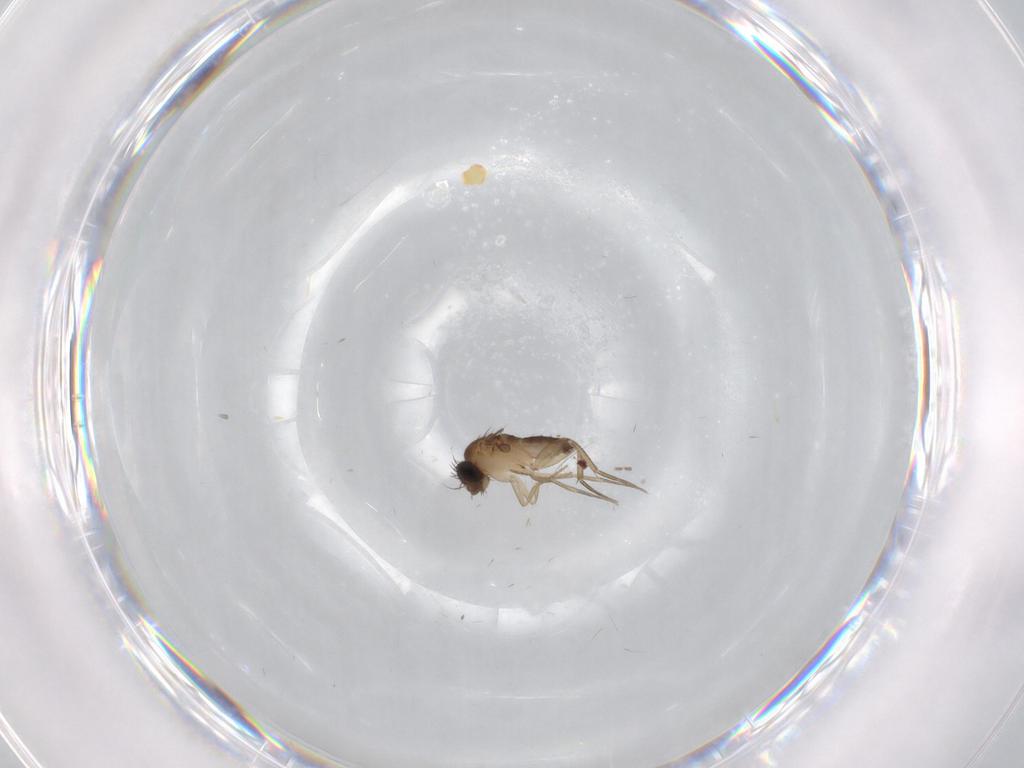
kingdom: Animalia
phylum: Arthropoda
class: Insecta
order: Diptera
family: Phoridae
